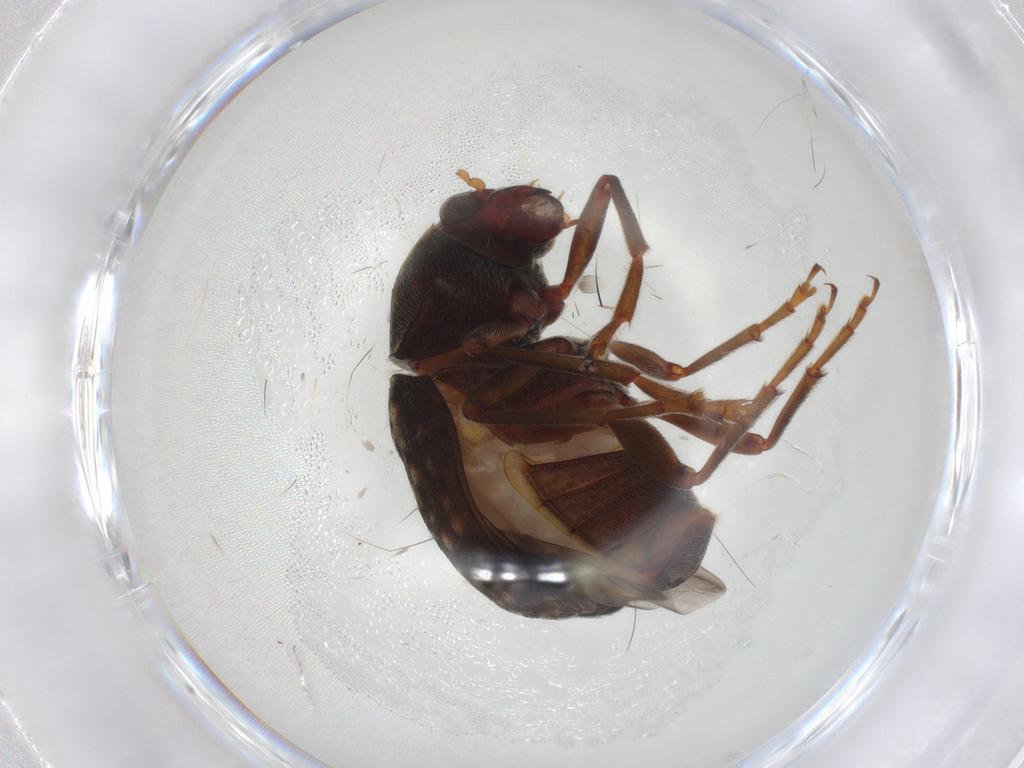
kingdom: Animalia
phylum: Arthropoda
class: Insecta
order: Coleoptera
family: Anthribidae
